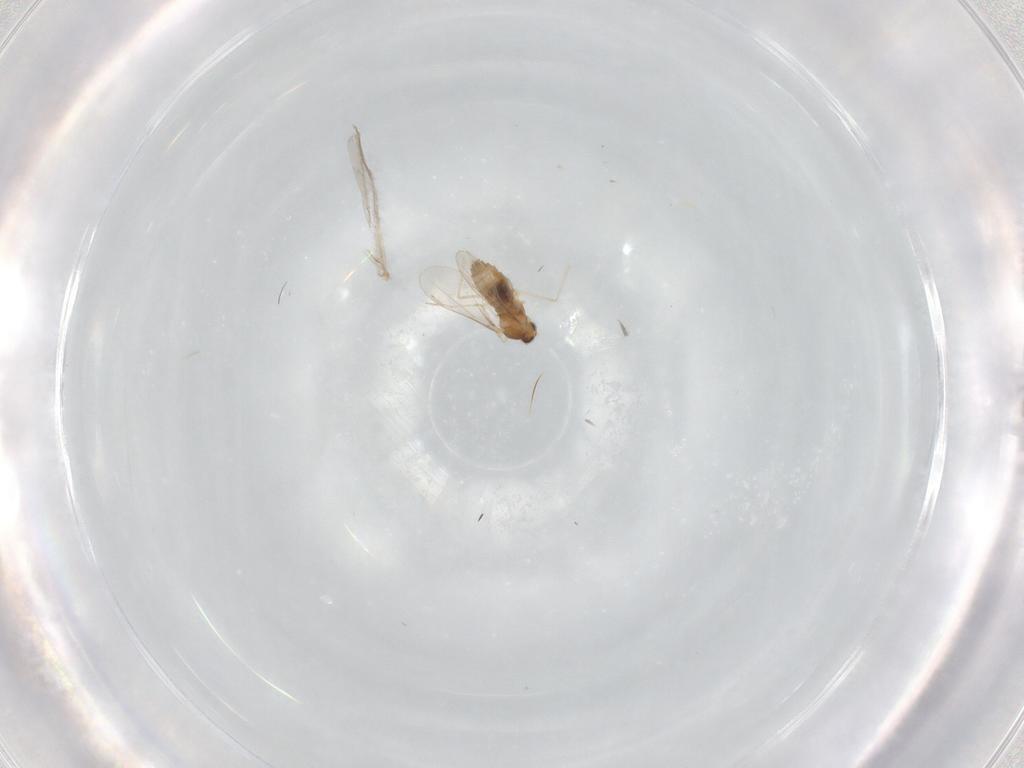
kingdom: Animalia
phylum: Arthropoda
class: Insecta
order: Diptera
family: Cecidomyiidae
